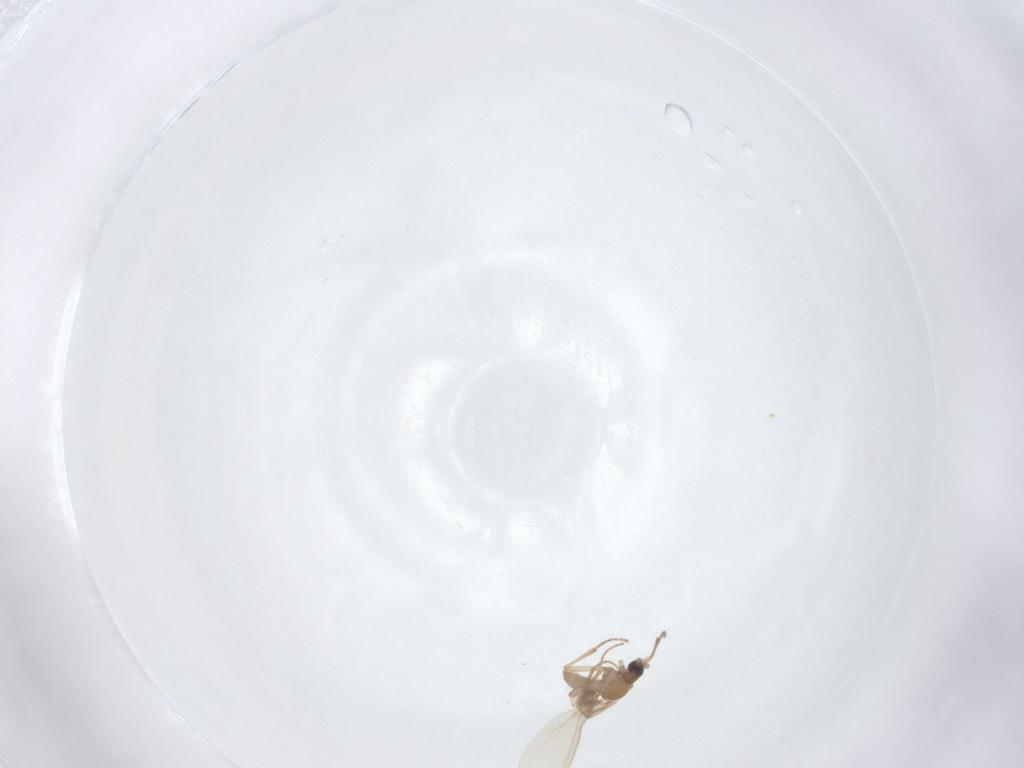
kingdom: Animalia
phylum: Arthropoda
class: Insecta
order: Diptera
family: Sciaridae
